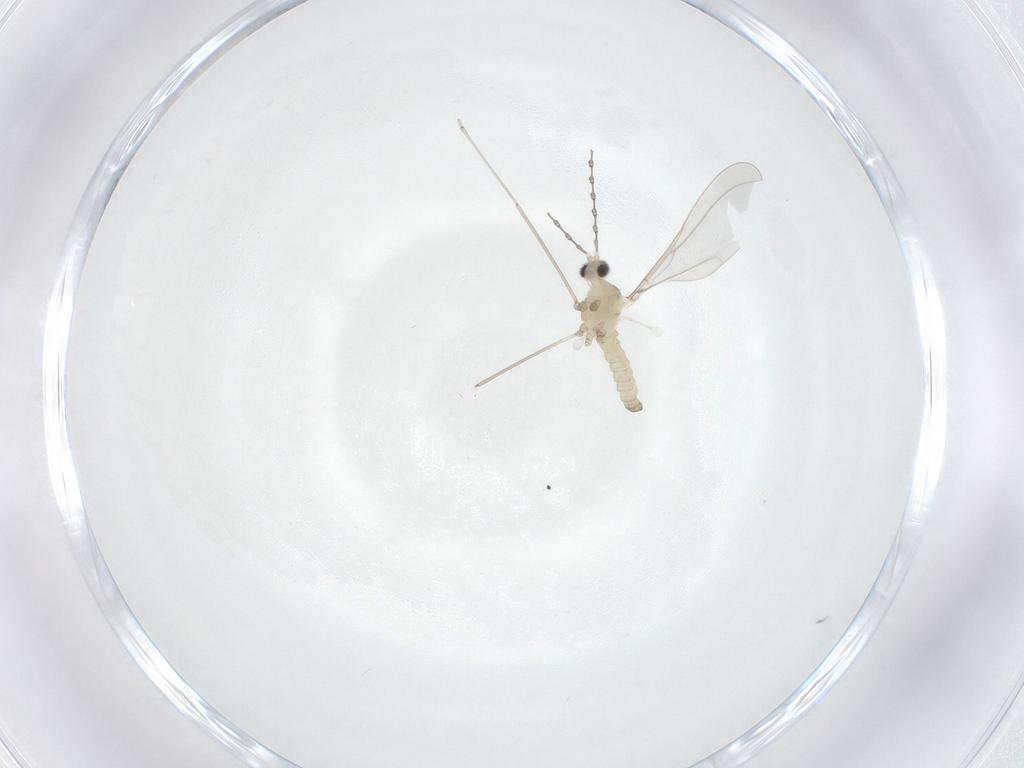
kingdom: Animalia
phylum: Arthropoda
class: Insecta
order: Diptera
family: Cecidomyiidae
